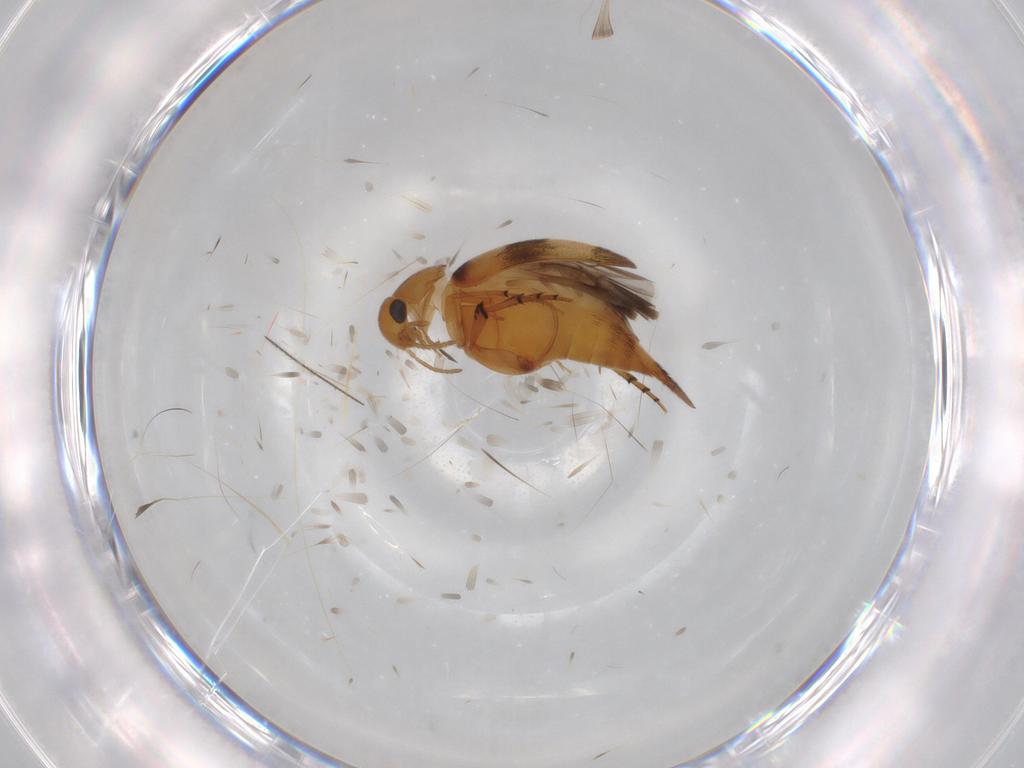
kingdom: Animalia
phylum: Arthropoda
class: Insecta
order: Coleoptera
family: Mordellidae
